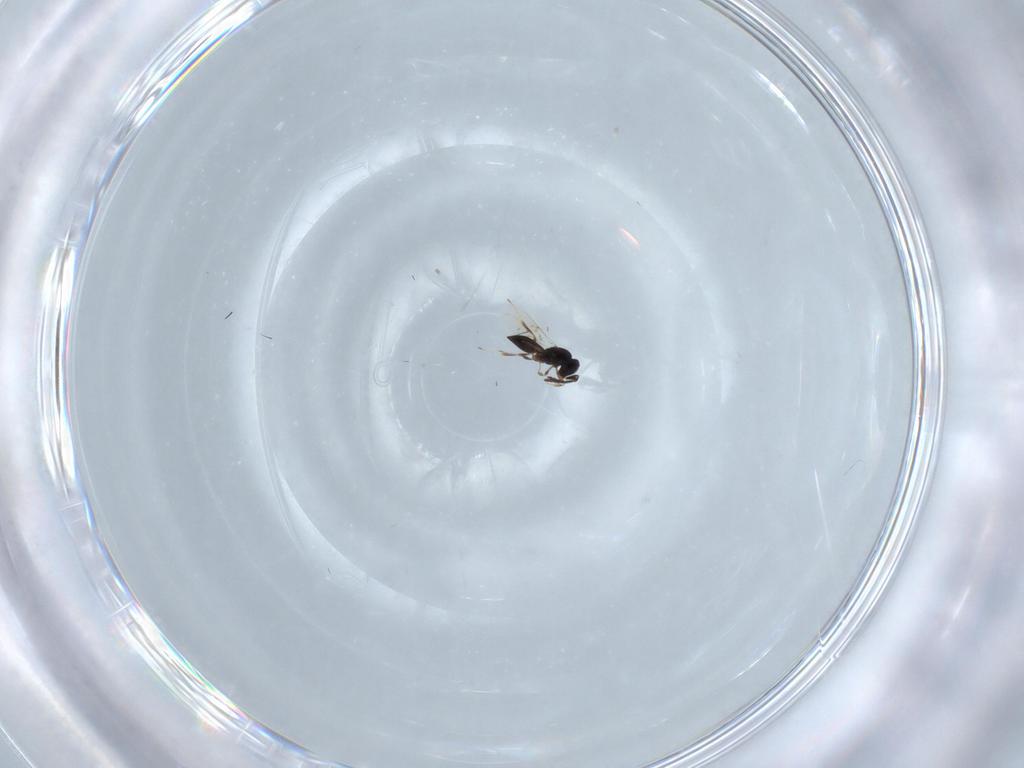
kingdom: Animalia
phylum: Arthropoda
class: Insecta
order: Hymenoptera
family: Scelionidae
